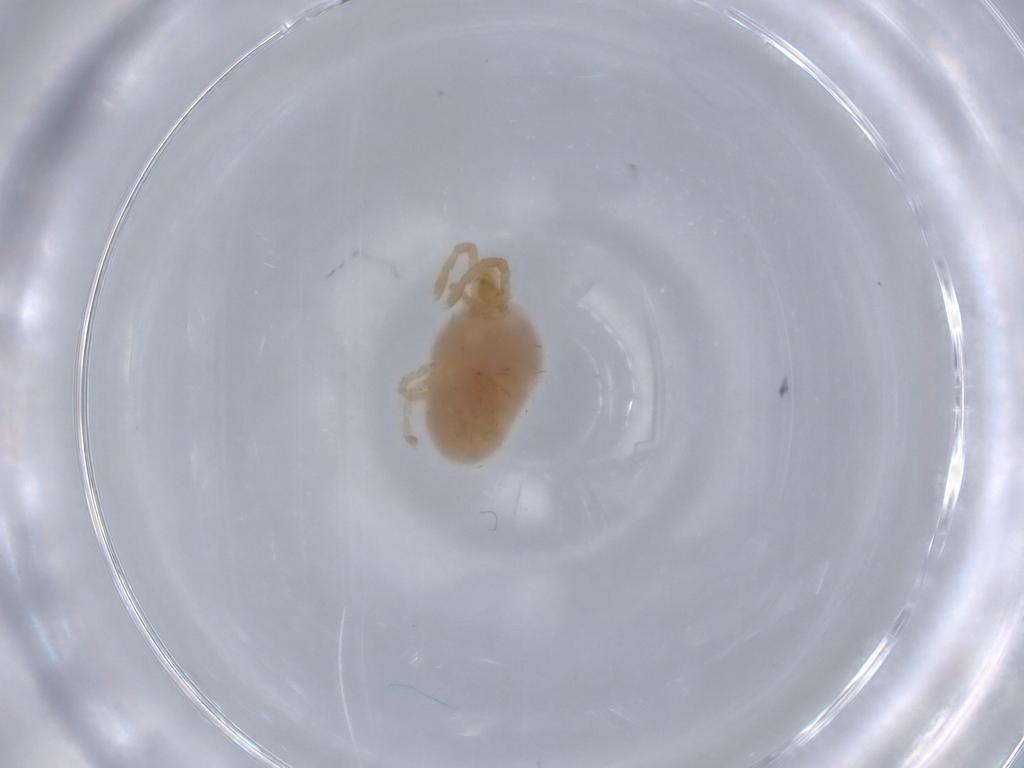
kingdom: Animalia
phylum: Arthropoda
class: Arachnida
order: Mesostigmata
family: Phytoseiidae
